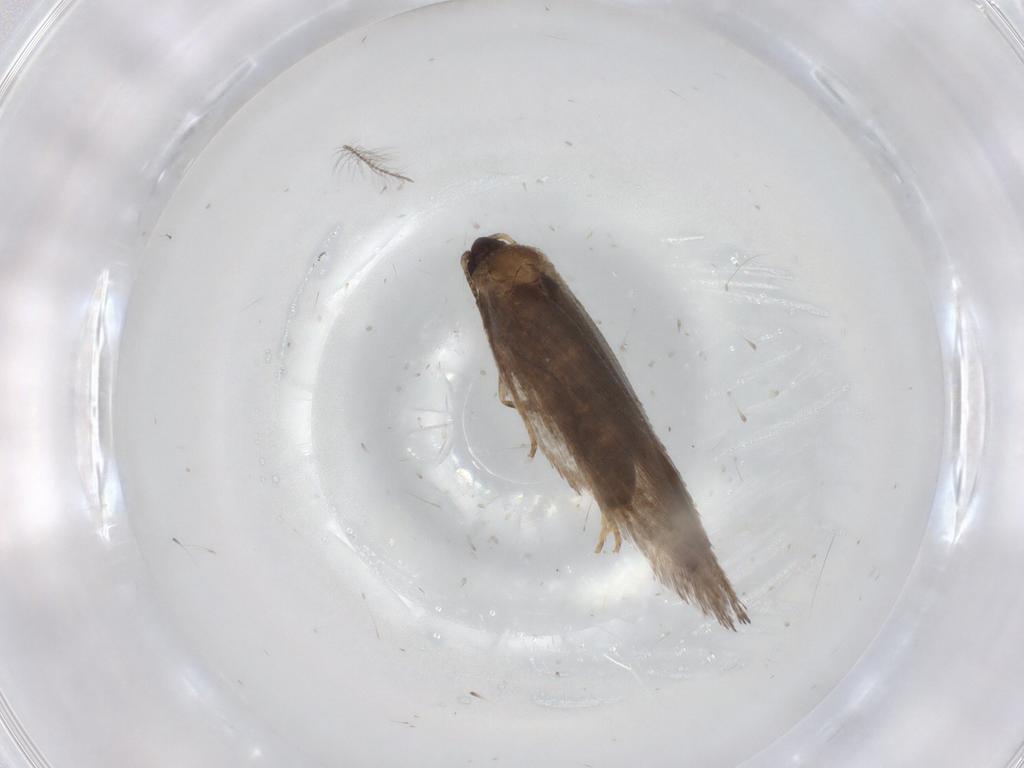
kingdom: Animalia
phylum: Arthropoda
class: Insecta
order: Lepidoptera
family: Nepticulidae
